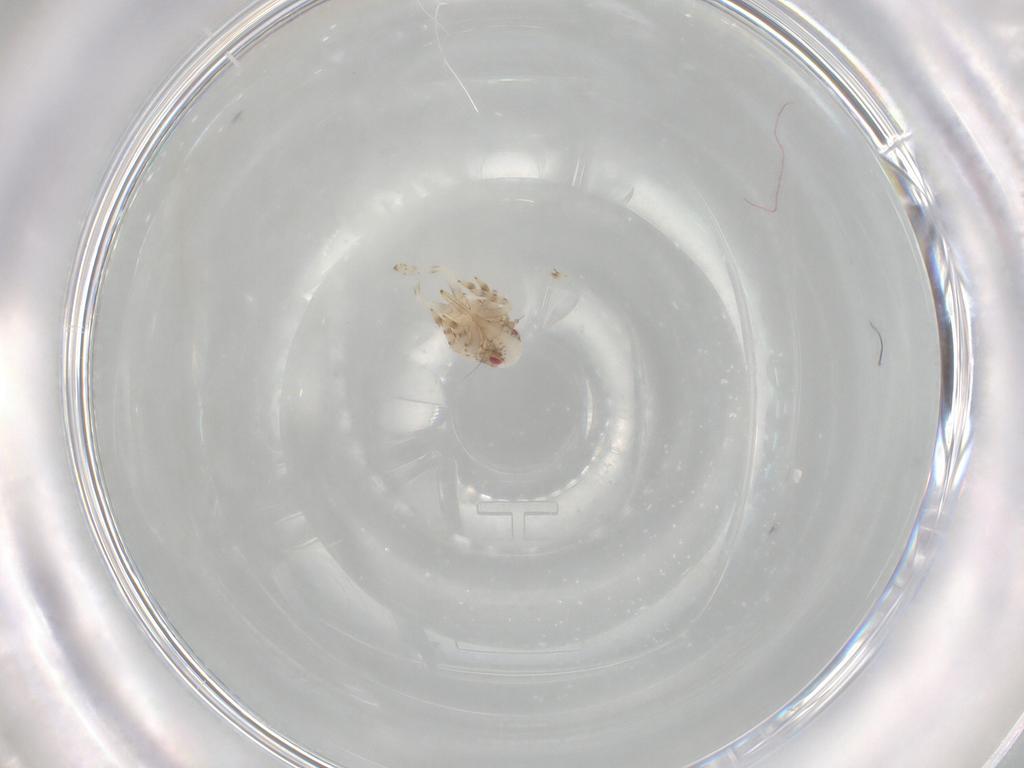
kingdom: Animalia
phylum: Arthropoda
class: Insecta
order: Hemiptera
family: Acanaloniidae
